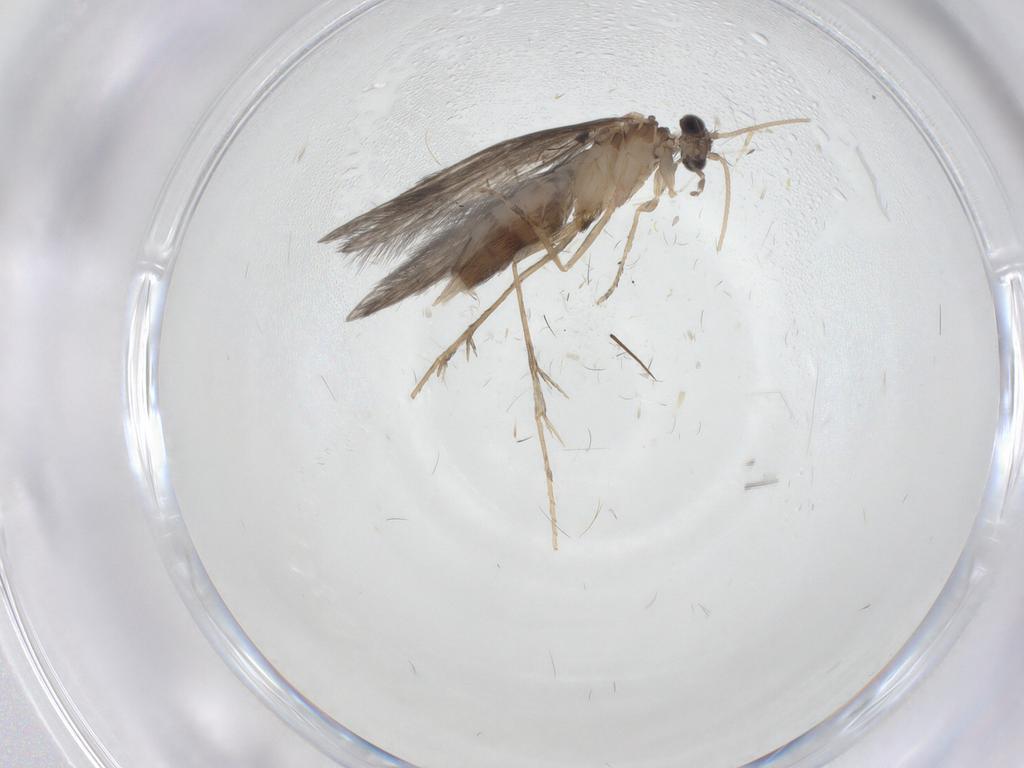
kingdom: Animalia
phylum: Arthropoda
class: Insecta
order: Trichoptera
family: Hydroptilidae
